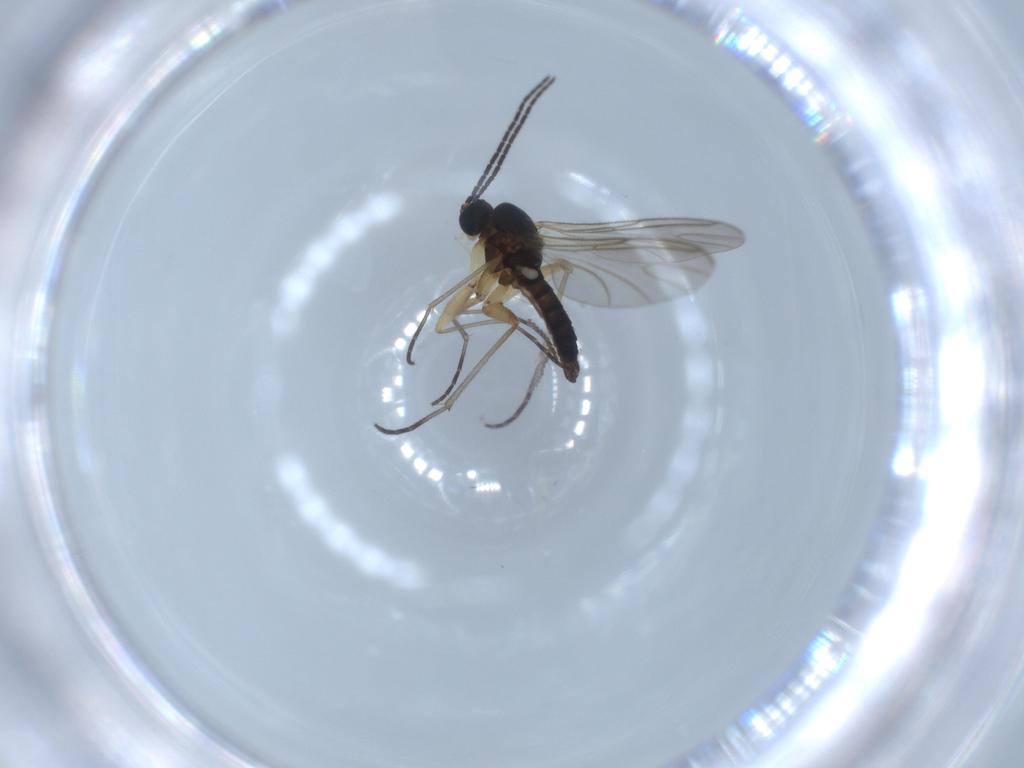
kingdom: Animalia
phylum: Arthropoda
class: Insecta
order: Diptera
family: Sciaridae
